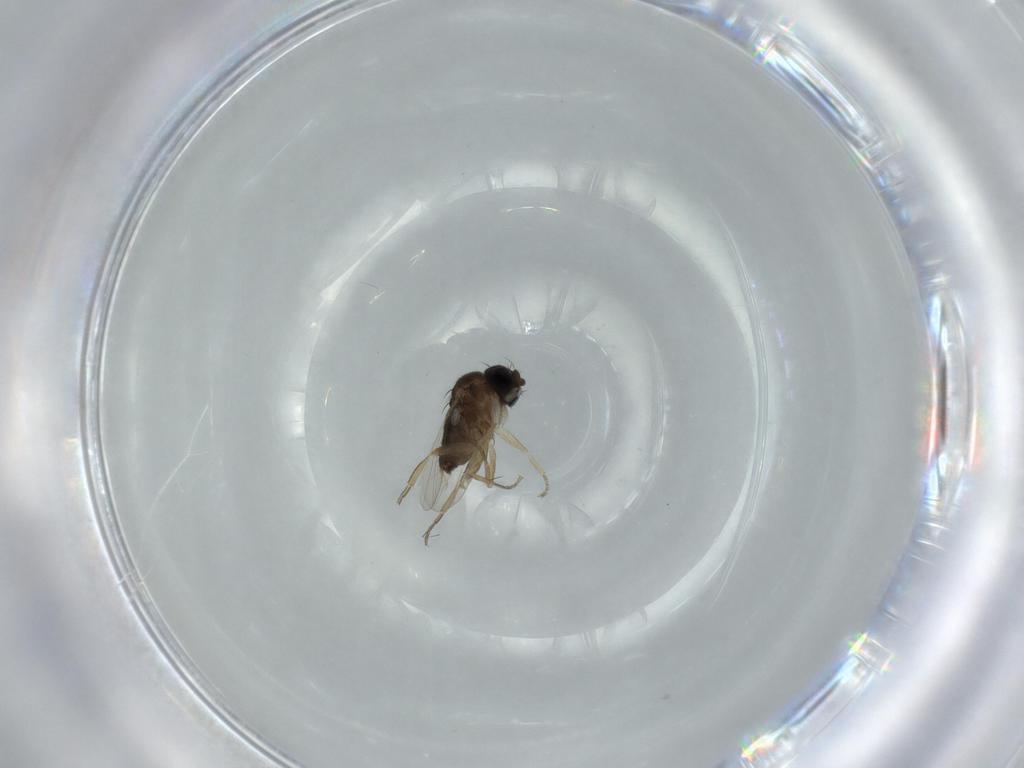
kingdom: Animalia
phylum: Arthropoda
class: Insecta
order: Diptera
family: Phoridae
